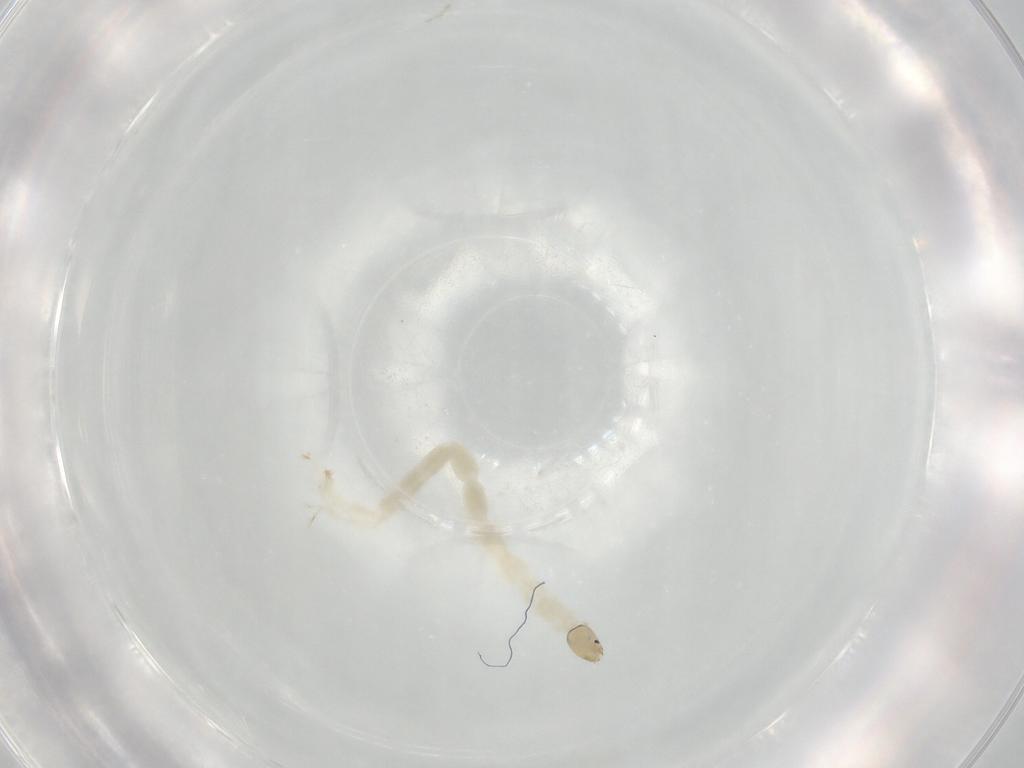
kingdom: Animalia
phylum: Arthropoda
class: Insecta
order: Diptera
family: Chironomidae
